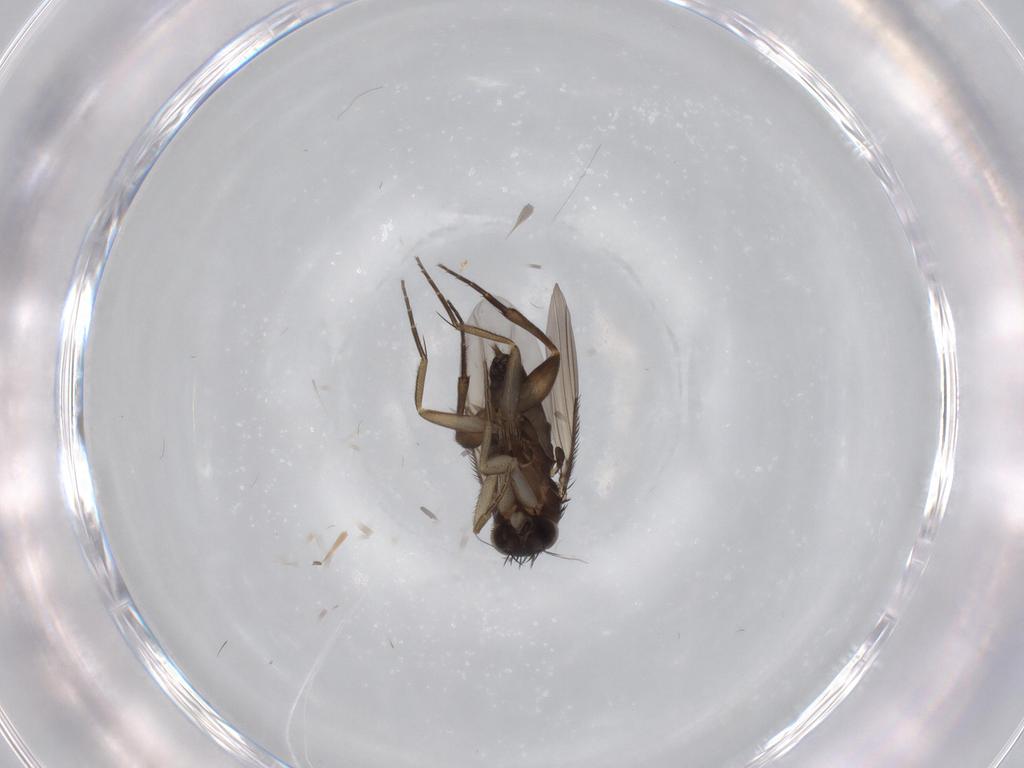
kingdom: Animalia
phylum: Arthropoda
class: Insecta
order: Diptera
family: Phoridae
